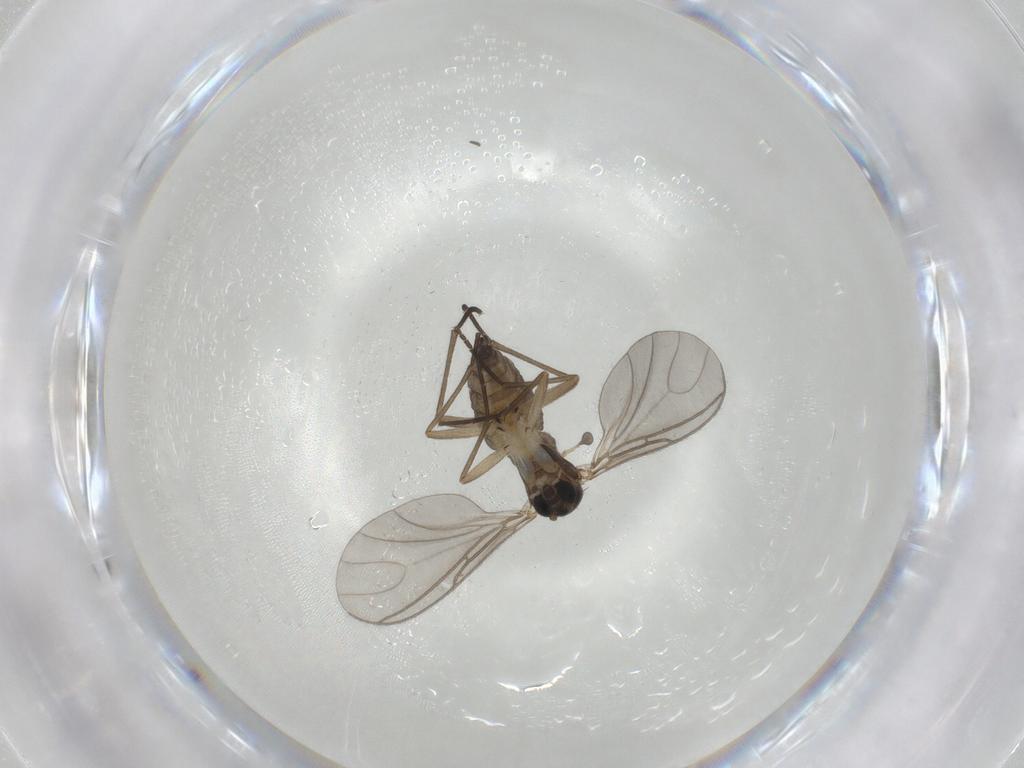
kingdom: Animalia
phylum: Arthropoda
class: Insecta
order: Diptera
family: Sciaridae
